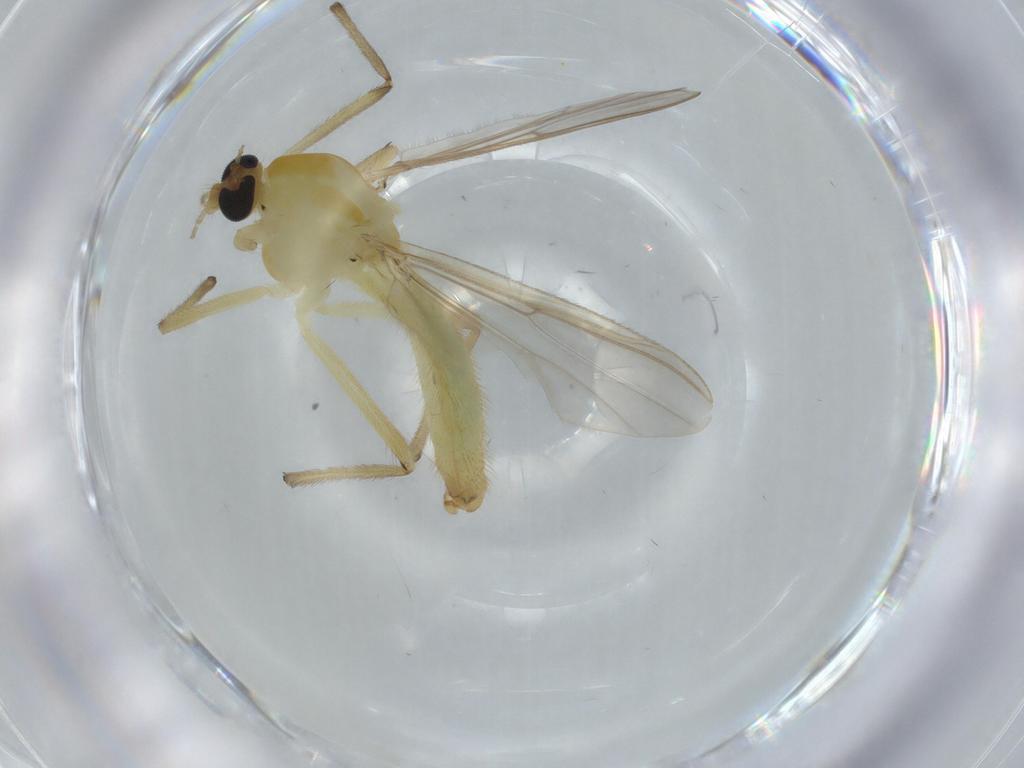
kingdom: Animalia
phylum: Arthropoda
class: Insecta
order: Diptera
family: Chironomidae
